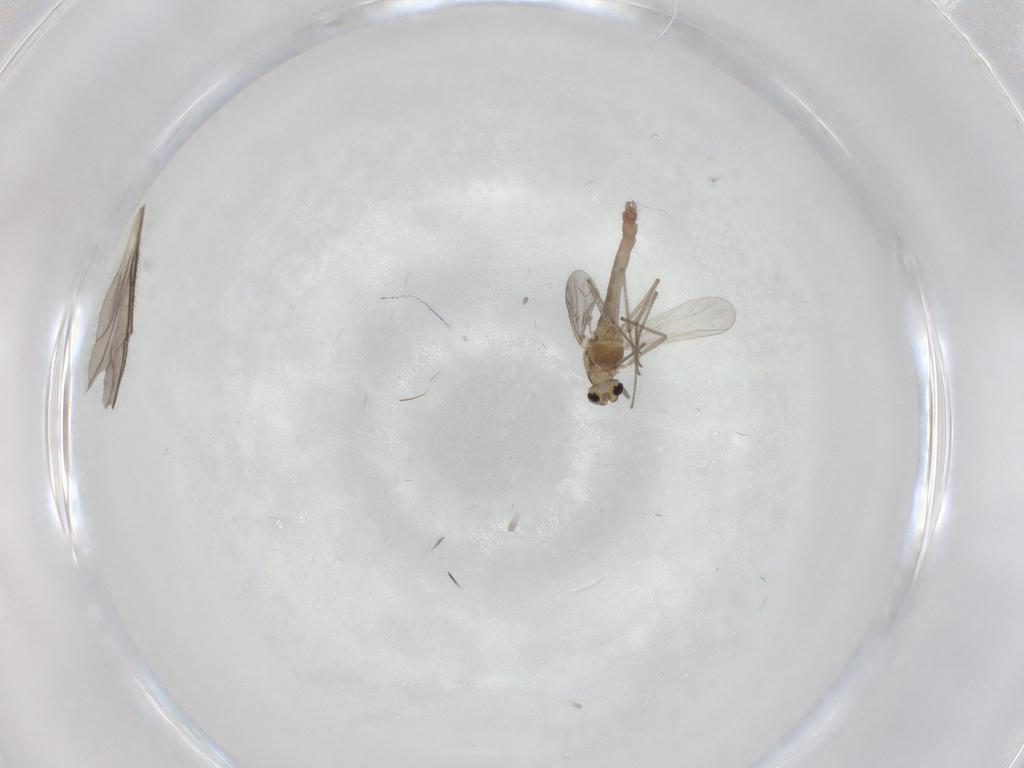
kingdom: Animalia
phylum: Arthropoda
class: Insecta
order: Diptera
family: Chironomidae
